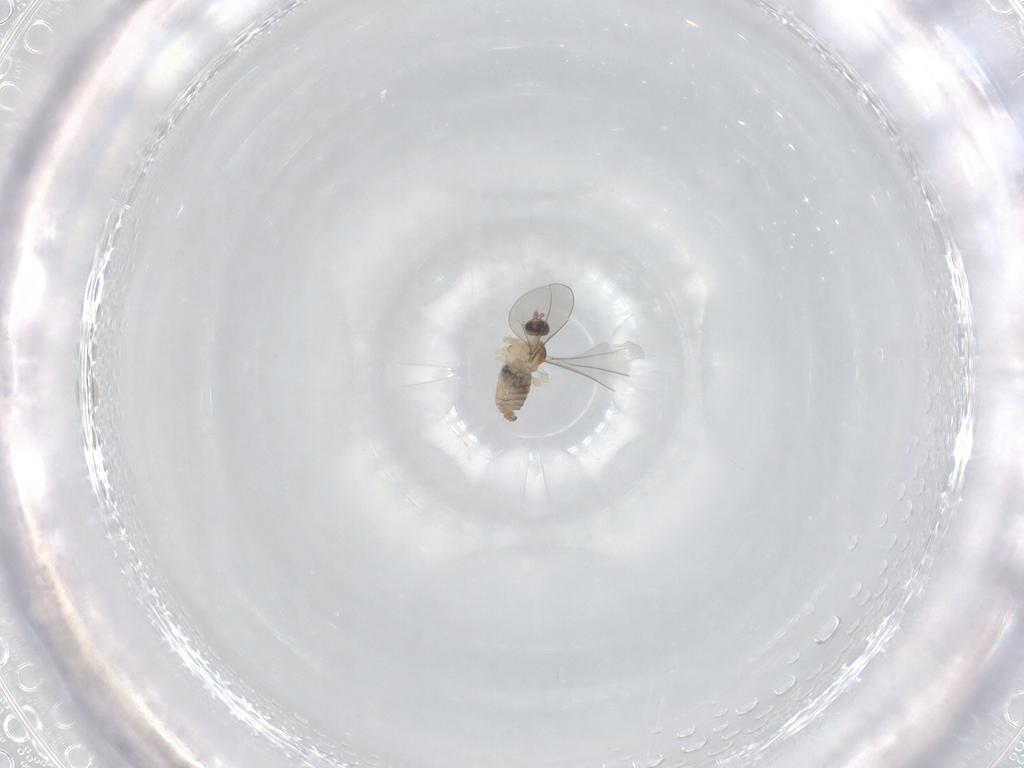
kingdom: Animalia
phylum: Arthropoda
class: Insecta
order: Diptera
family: Cecidomyiidae
